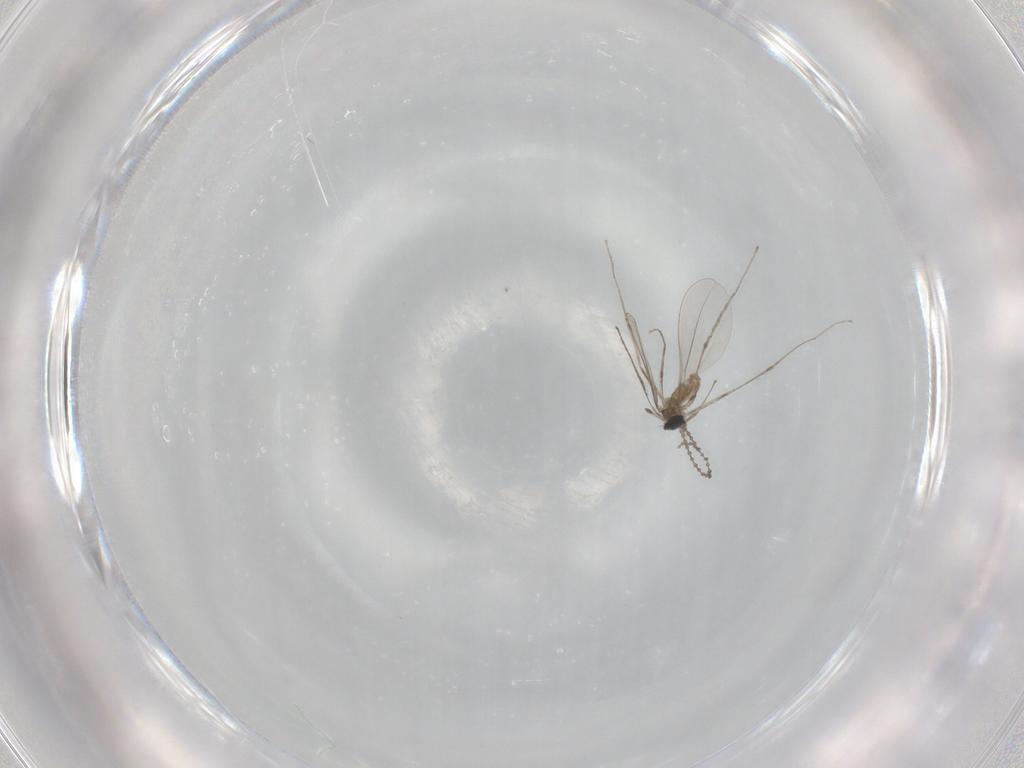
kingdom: Animalia
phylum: Arthropoda
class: Insecta
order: Diptera
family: Cecidomyiidae
